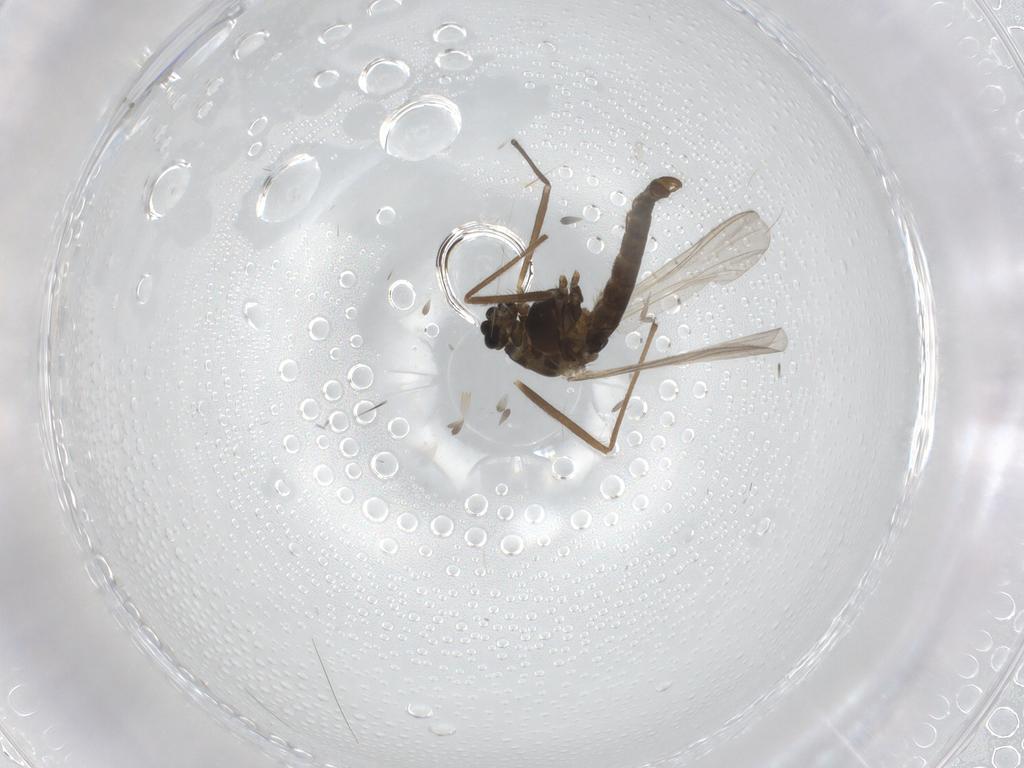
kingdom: Animalia
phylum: Arthropoda
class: Insecta
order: Diptera
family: Chironomidae
